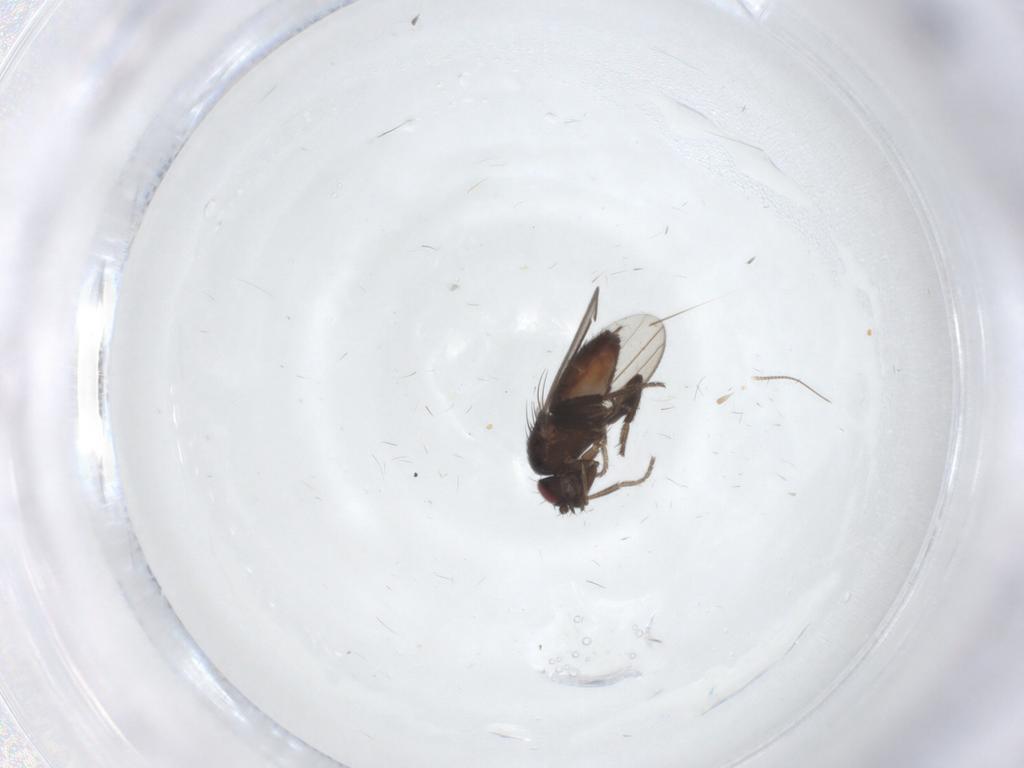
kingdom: Animalia
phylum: Arthropoda
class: Insecta
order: Diptera
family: Chironomidae
